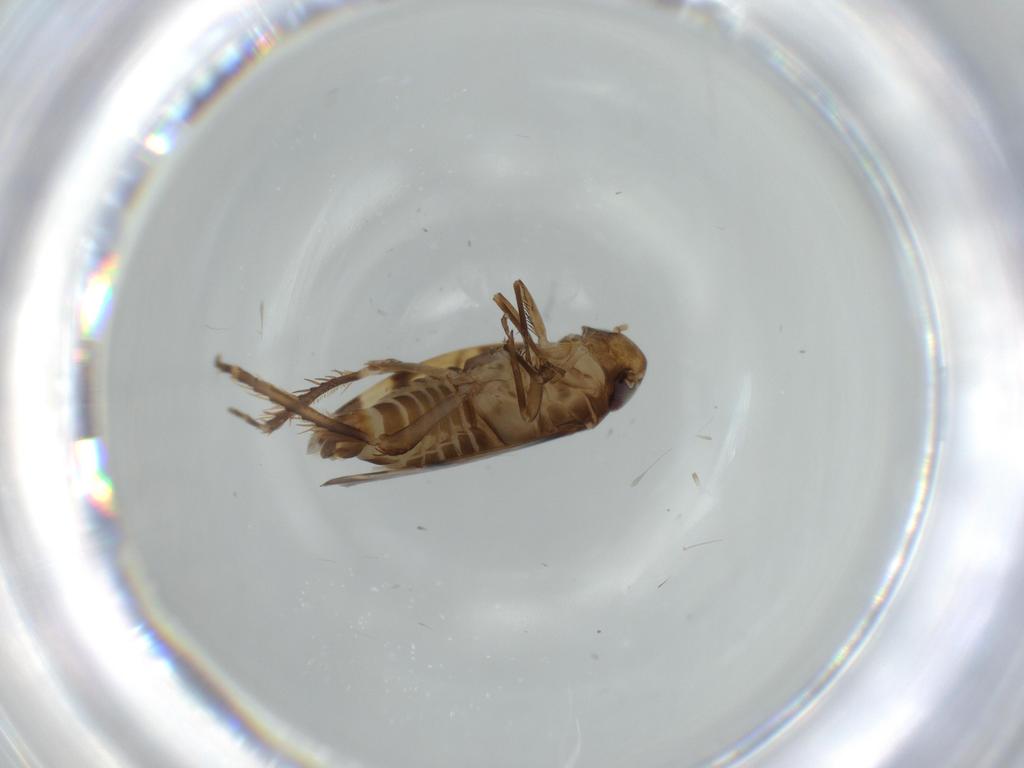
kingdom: Animalia
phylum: Arthropoda
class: Insecta
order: Hemiptera
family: Cicadellidae
